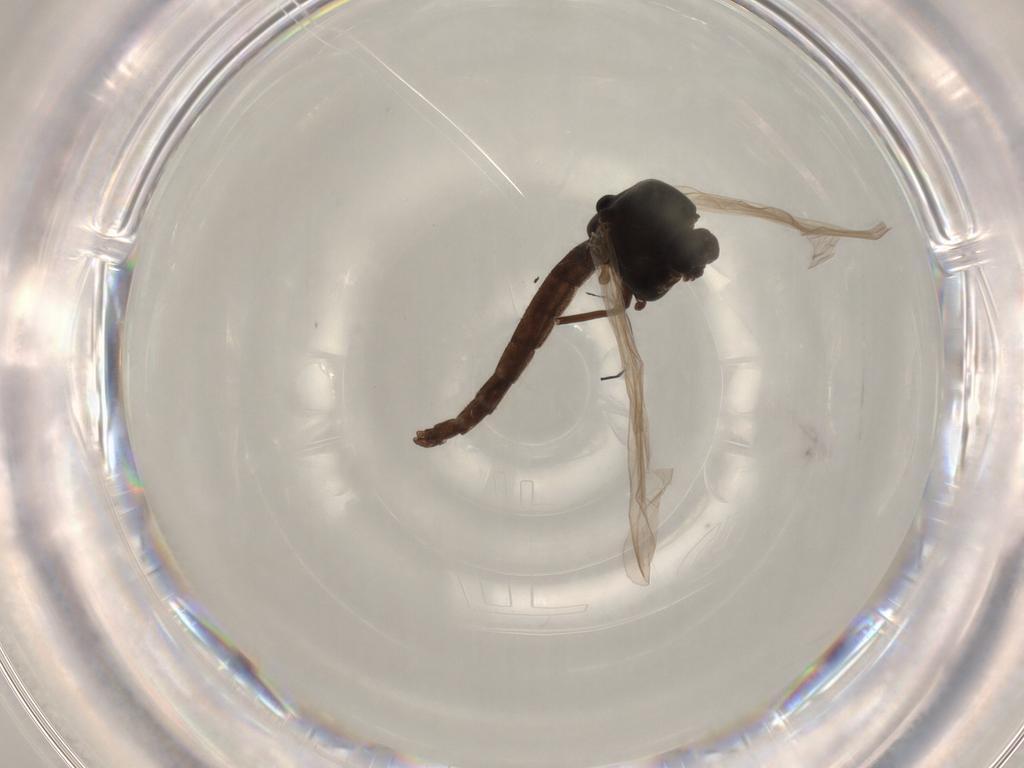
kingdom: Animalia
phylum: Arthropoda
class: Insecta
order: Diptera
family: Chironomidae
